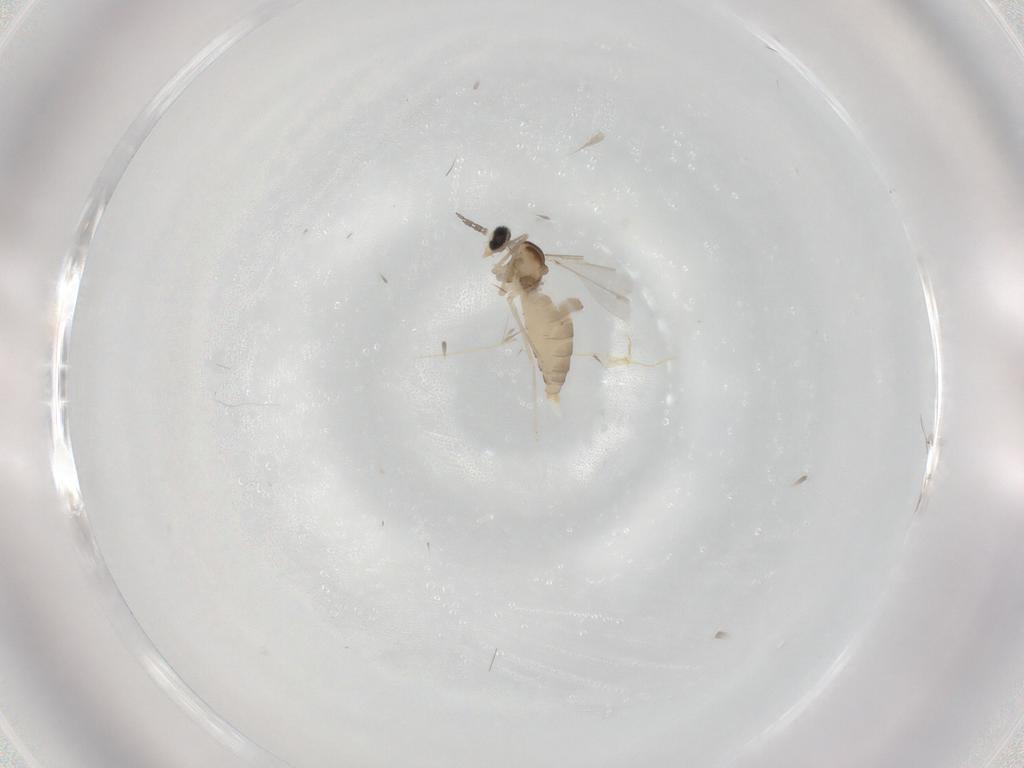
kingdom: Animalia
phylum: Arthropoda
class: Insecta
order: Diptera
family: Cecidomyiidae
